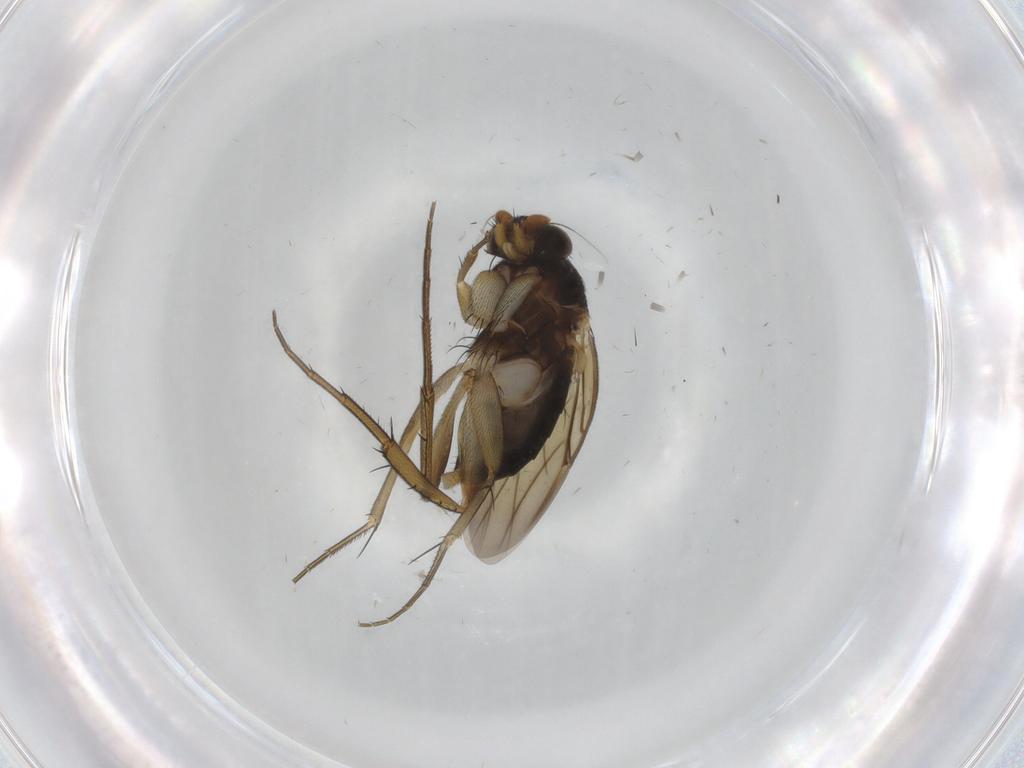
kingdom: Animalia
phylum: Arthropoda
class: Insecta
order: Diptera
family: Phoridae
